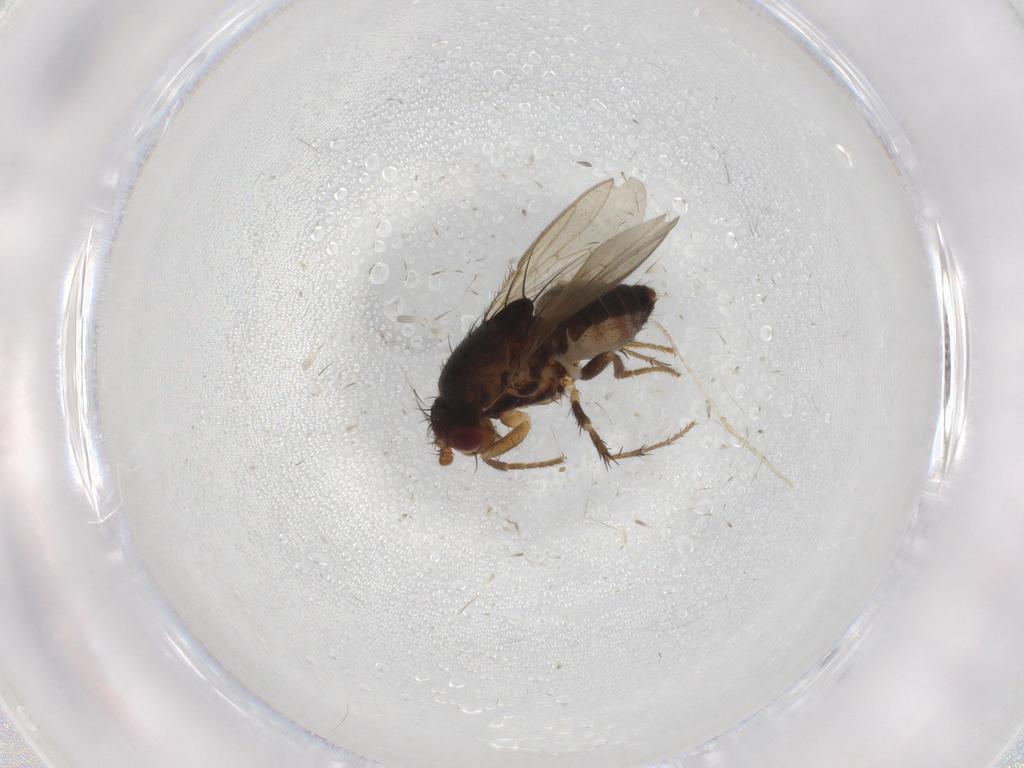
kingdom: Animalia
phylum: Arthropoda
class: Insecta
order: Diptera
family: Sphaeroceridae
